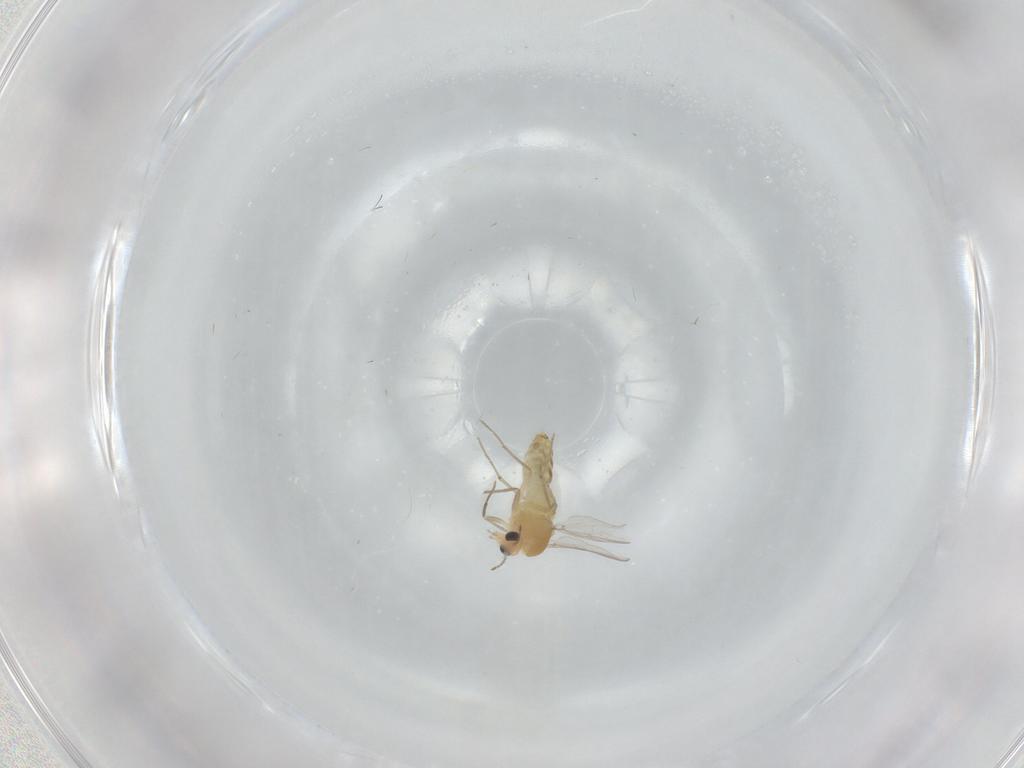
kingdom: Animalia
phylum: Arthropoda
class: Insecta
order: Diptera
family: Chironomidae
